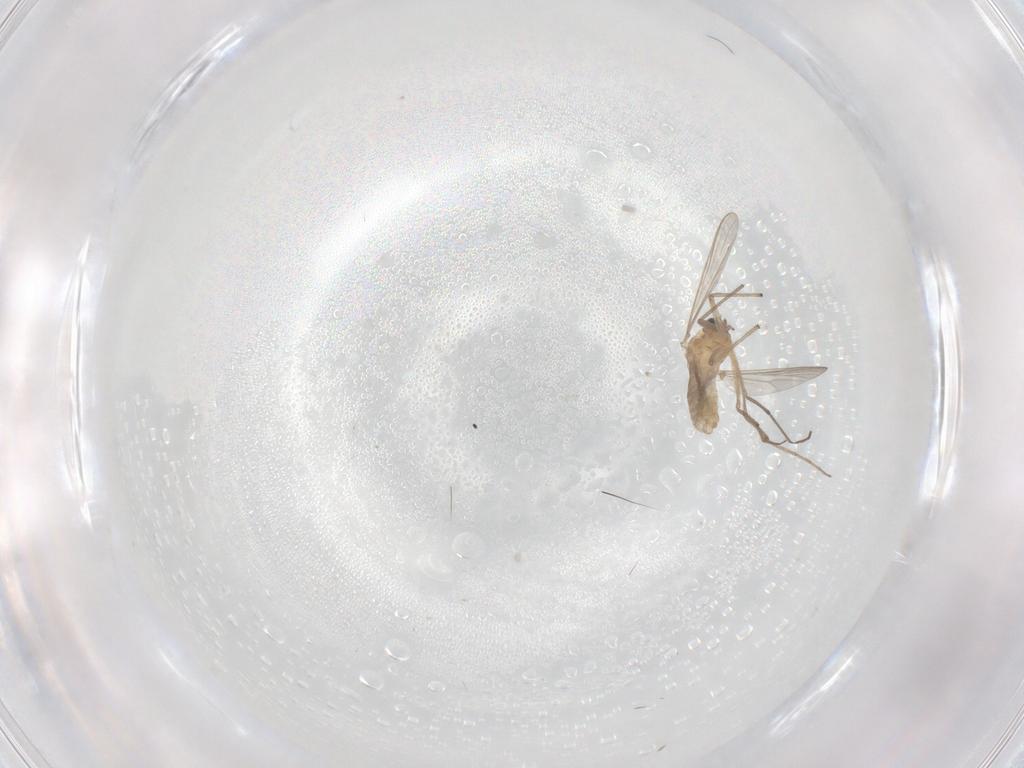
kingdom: Animalia
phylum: Arthropoda
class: Insecta
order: Diptera
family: Chironomidae
